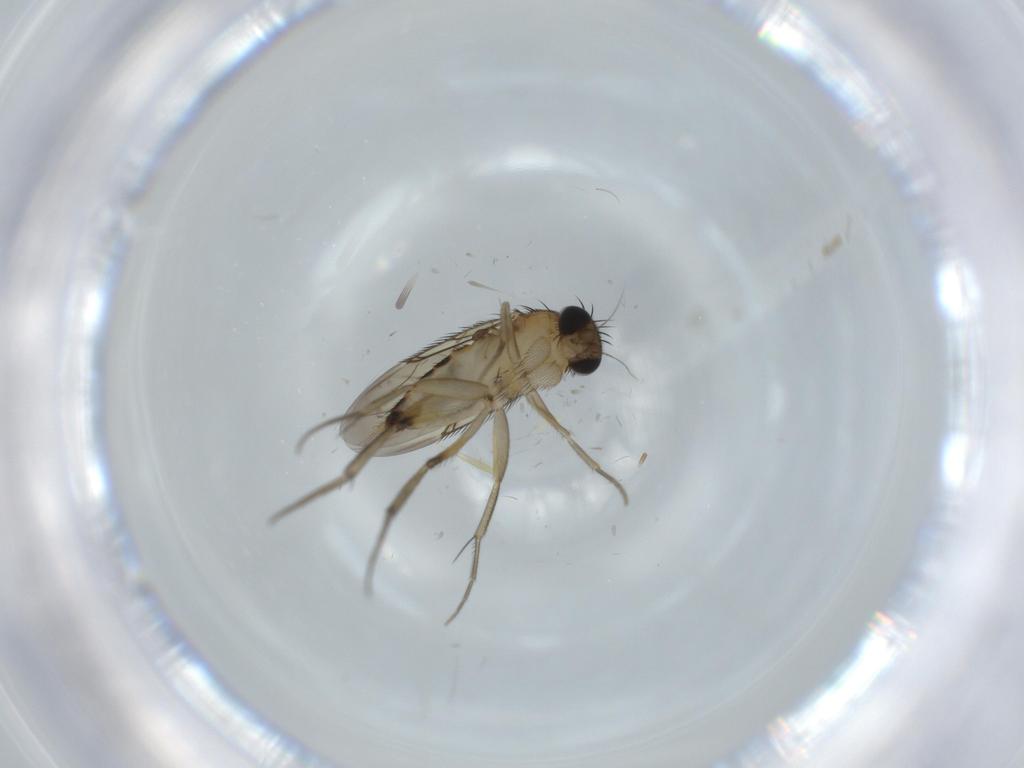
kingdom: Animalia
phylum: Arthropoda
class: Insecta
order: Diptera
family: Phoridae
